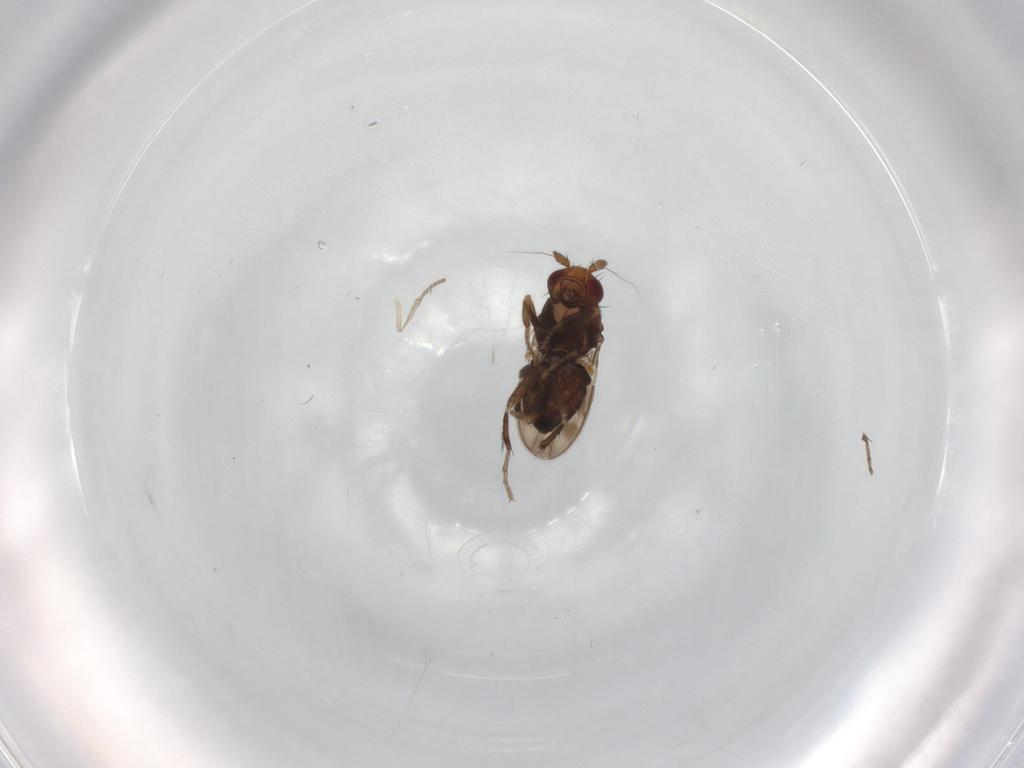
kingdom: Animalia
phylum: Arthropoda
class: Insecta
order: Diptera
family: Sphaeroceridae
